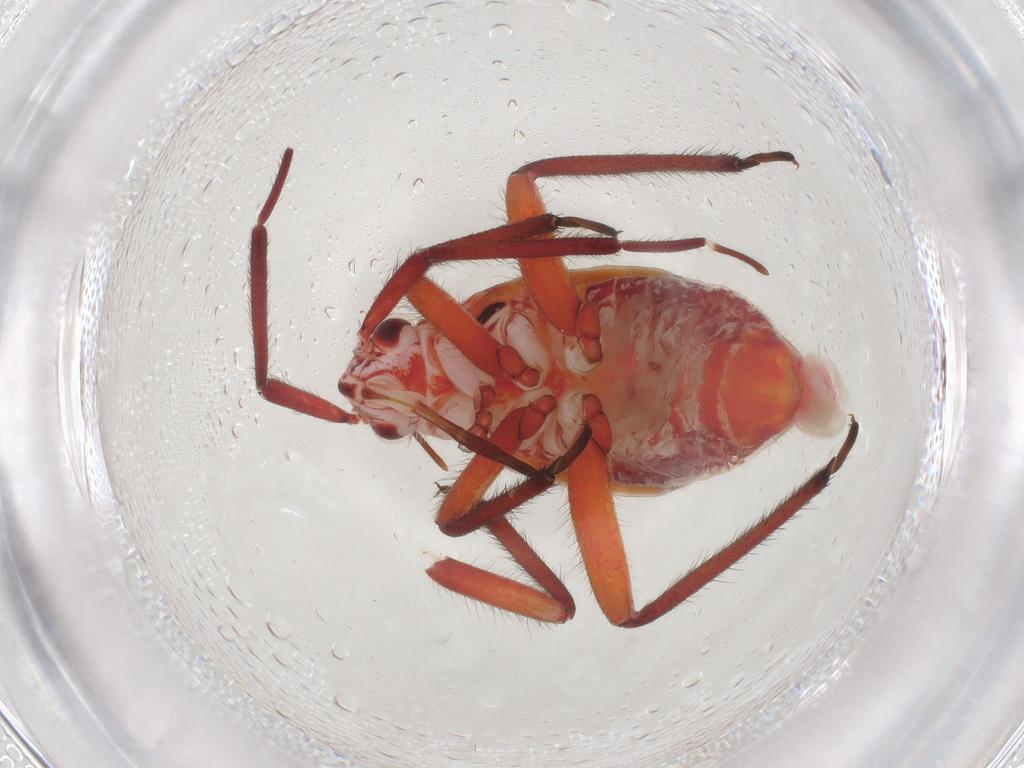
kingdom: Animalia
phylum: Arthropoda
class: Insecta
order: Hemiptera
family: Miridae
